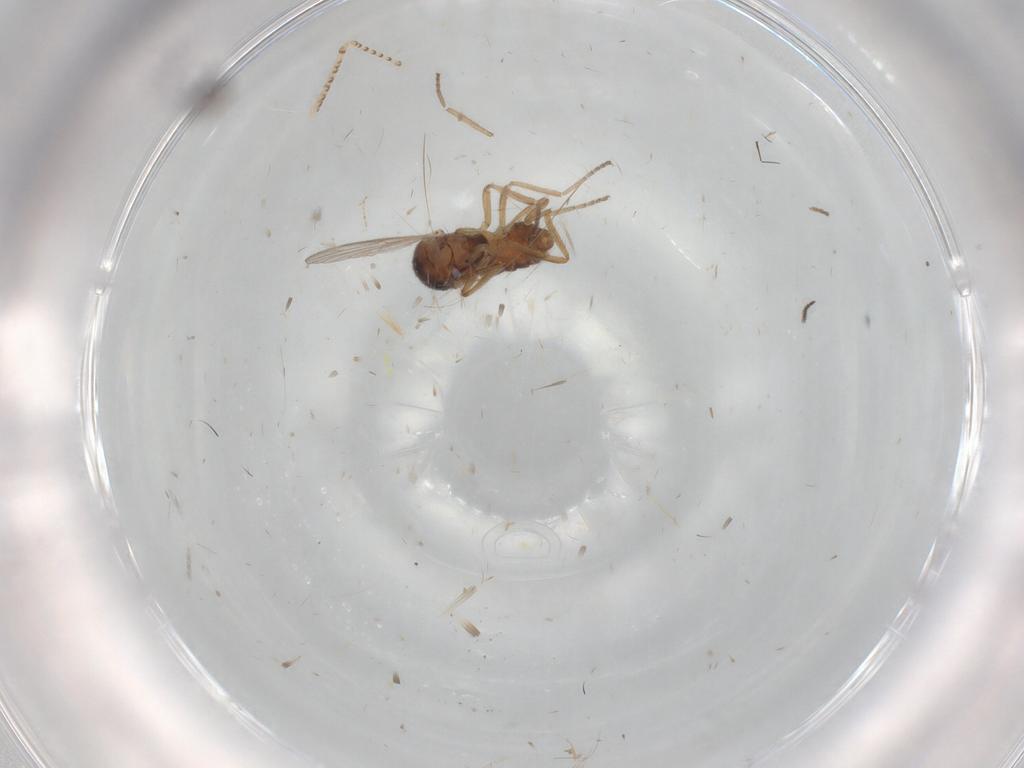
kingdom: Animalia
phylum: Arthropoda
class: Insecta
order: Diptera
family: Ceratopogonidae
